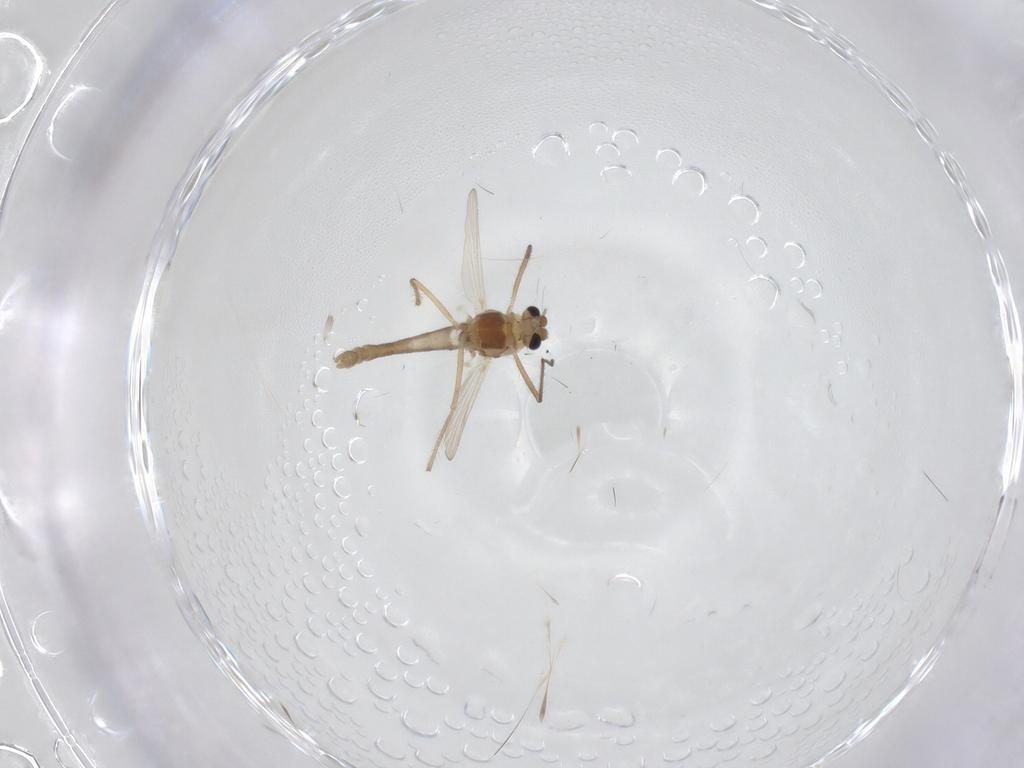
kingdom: Animalia
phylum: Arthropoda
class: Insecta
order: Diptera
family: Chironomidae
